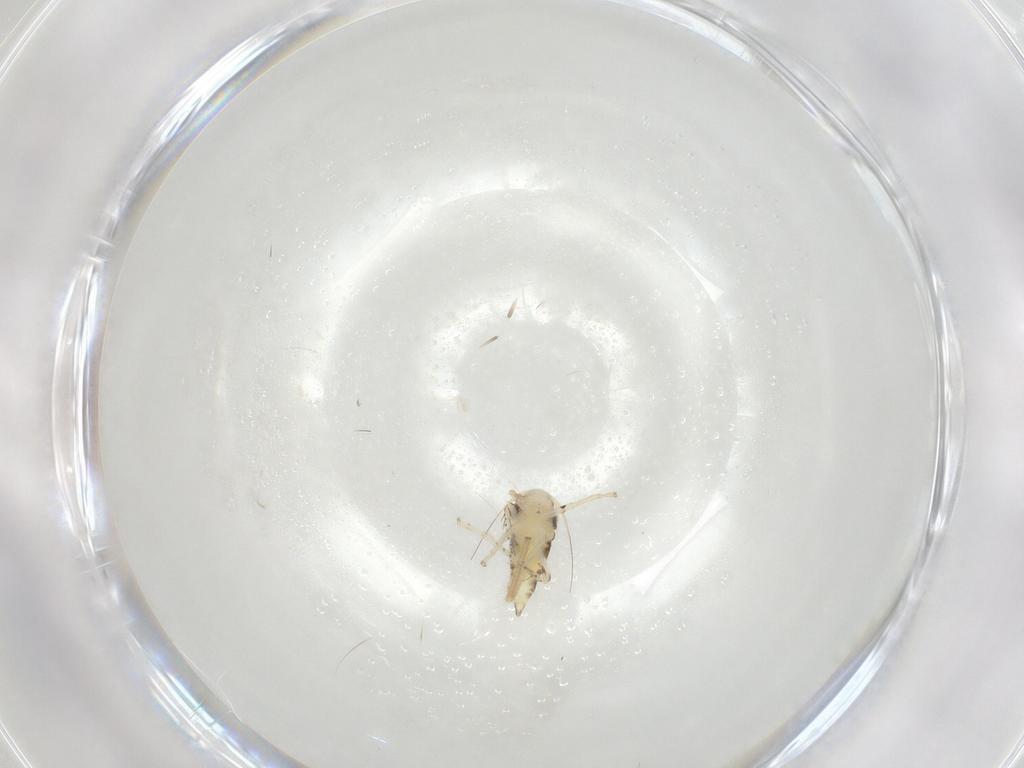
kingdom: Animalia
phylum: Arthropoda
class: Insecta
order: Hemiptera
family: Cicadellidae
